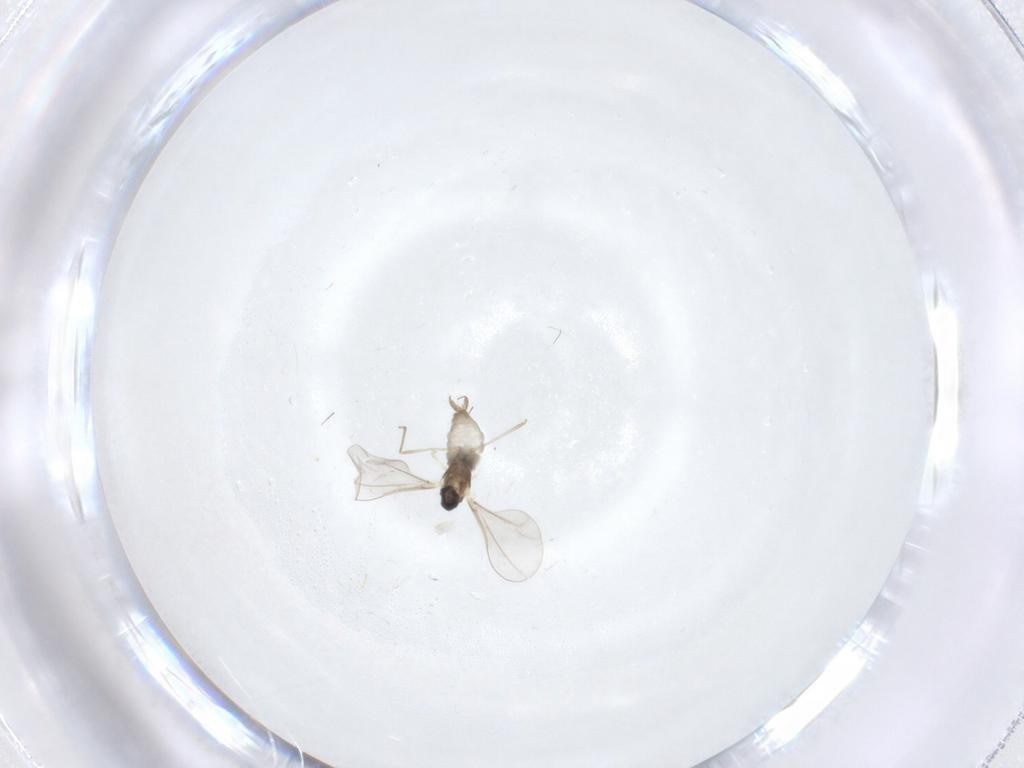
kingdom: Animalia
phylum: Arthropoda
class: Insecta
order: Diptera
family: Cecidomyiidae
